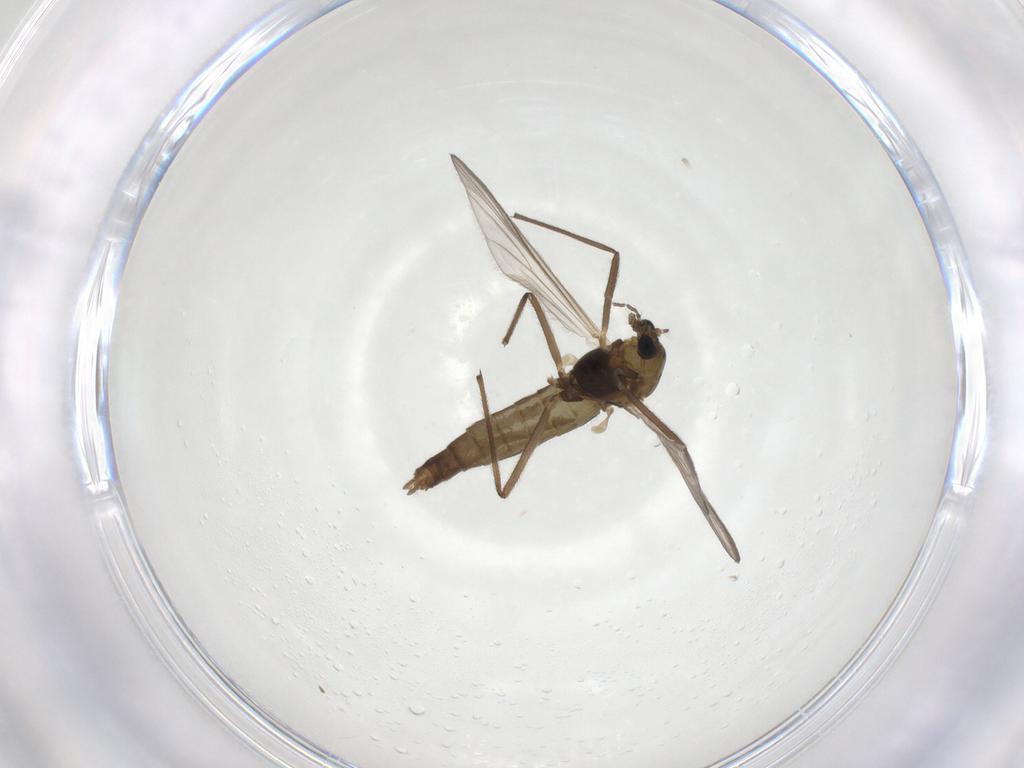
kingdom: Animalia
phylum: Arthropoda
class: Insecta
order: Diptera
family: Chironomidae
